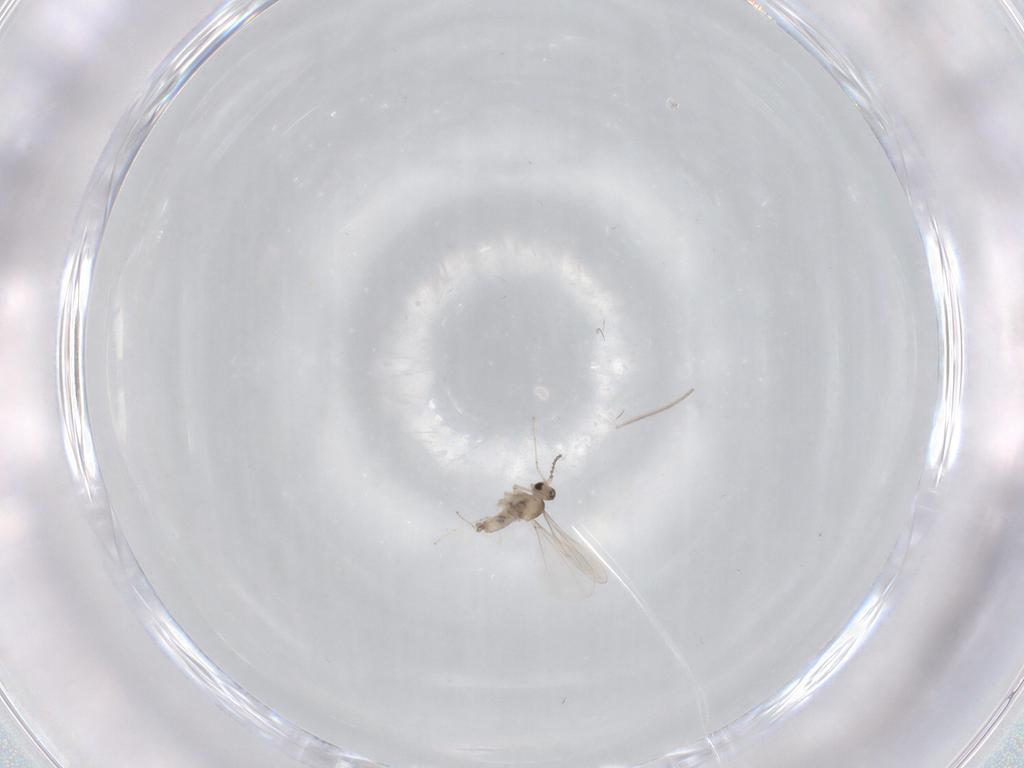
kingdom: Animalia
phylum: Arthropoda
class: Insecta
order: Diptera
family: Cecidomyiidae
